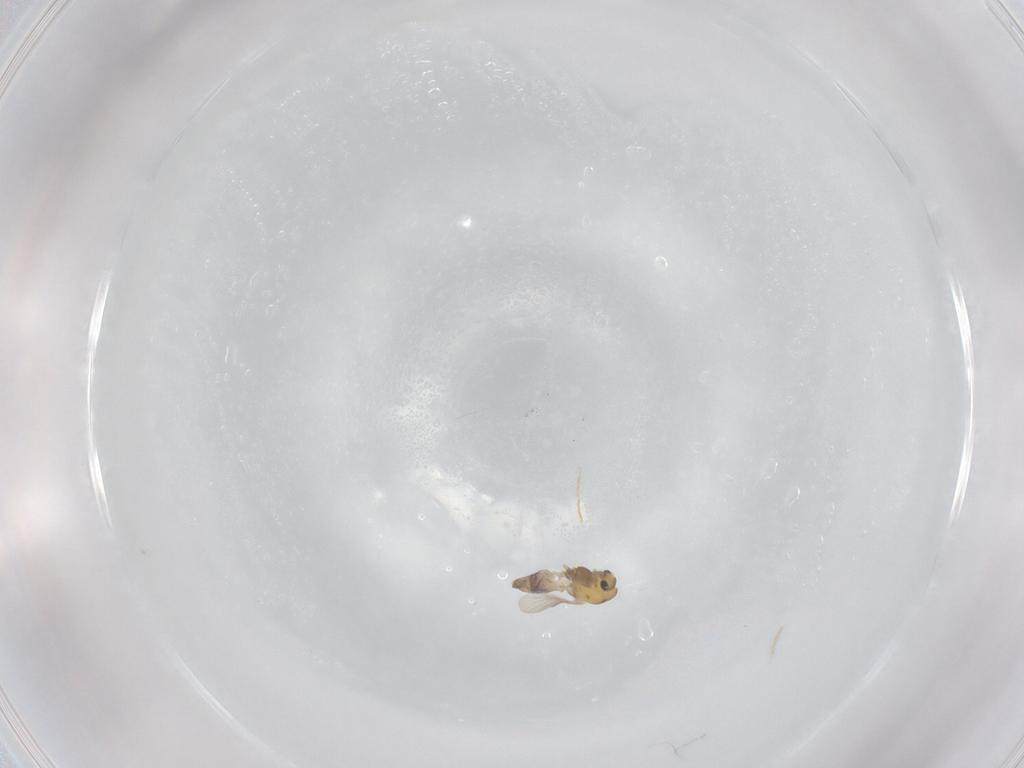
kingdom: Animalia
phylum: Arthropoda
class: Insecta
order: Diptera
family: Chironomidae
